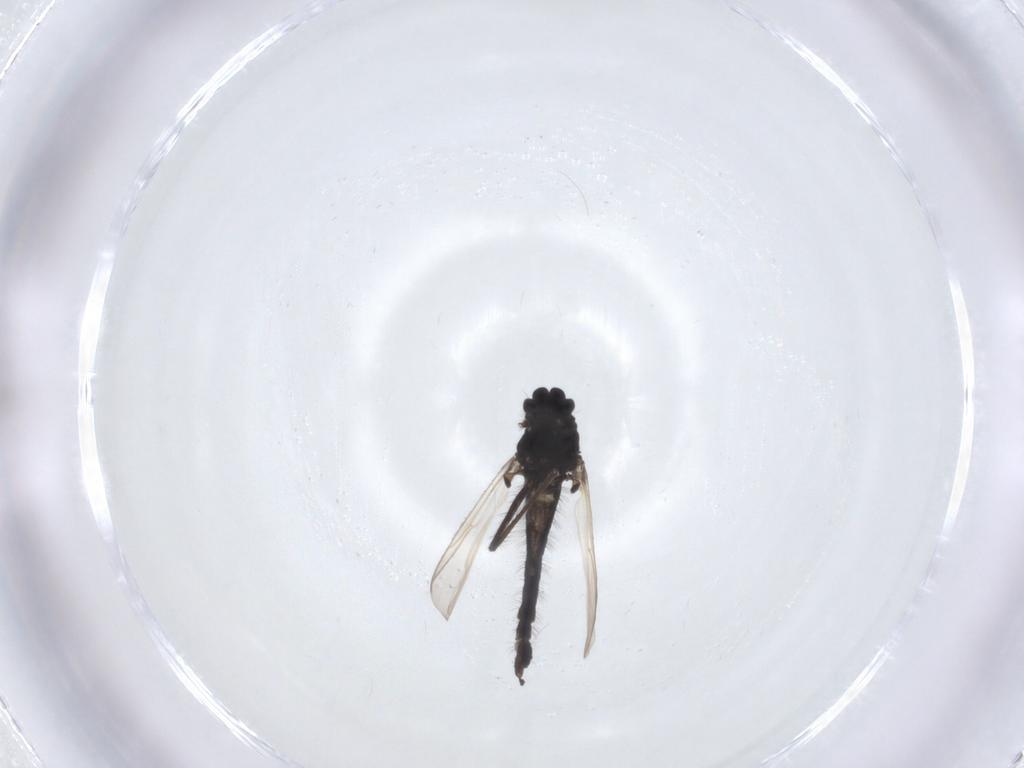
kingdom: Animalia
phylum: Arthropoda
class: Insecta
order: Diptera
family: Chironomidae
